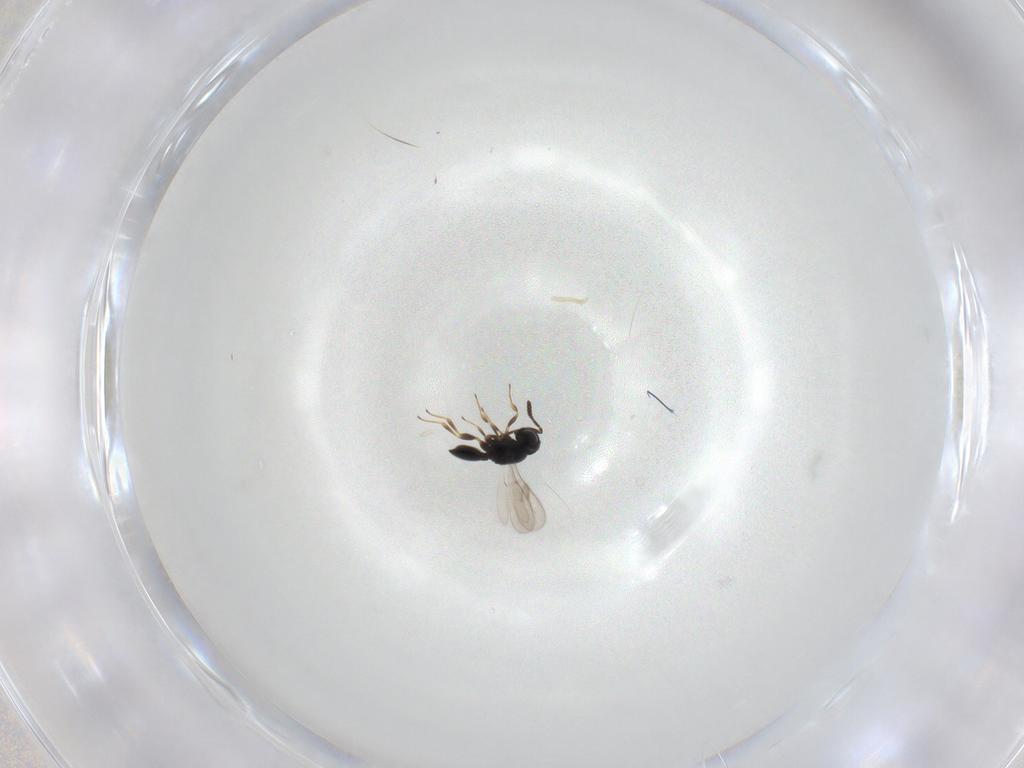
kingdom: Animalia
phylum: Arthropoda
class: Insecta
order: Hymenoptera
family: Scelionidae
